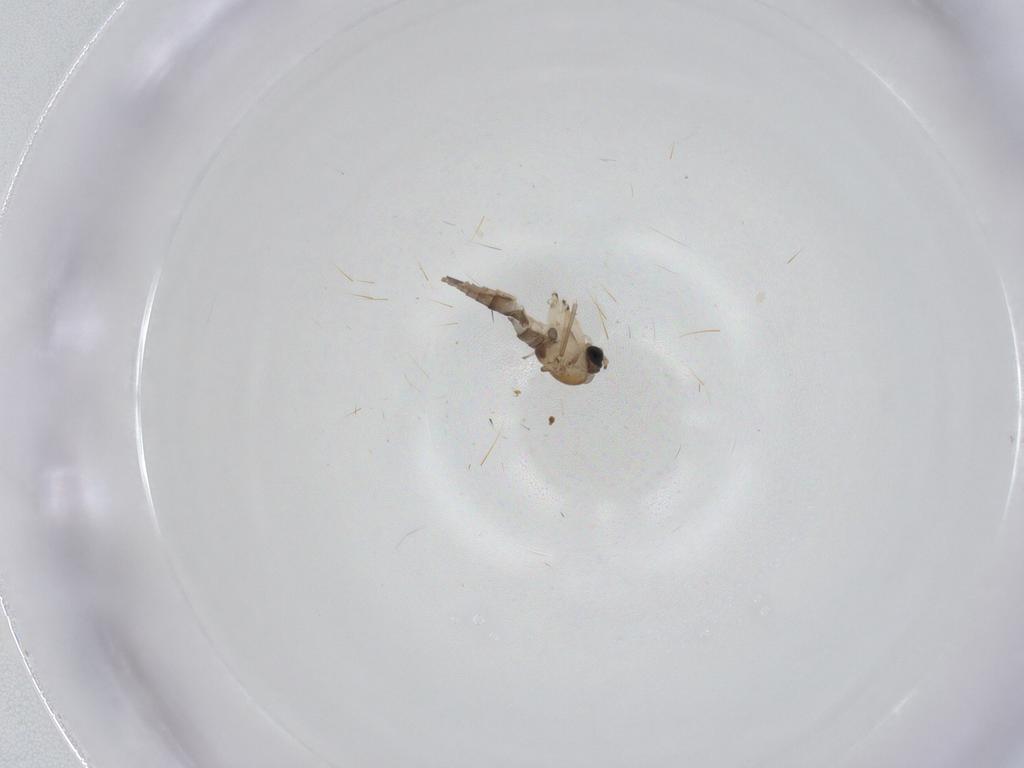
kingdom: Animalia
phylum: Arthropoda
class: Insecta
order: Diptera
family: Sciaridae
